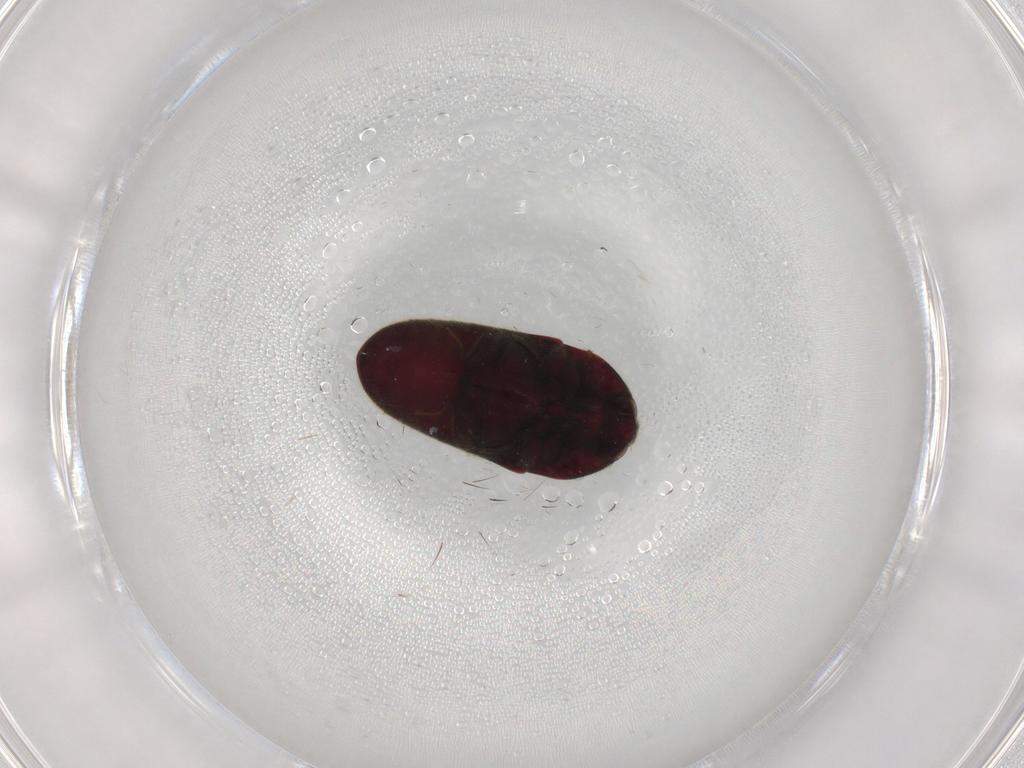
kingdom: Animalia
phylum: Arthropoda
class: Insecta
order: Coleoptera
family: Throscidae
